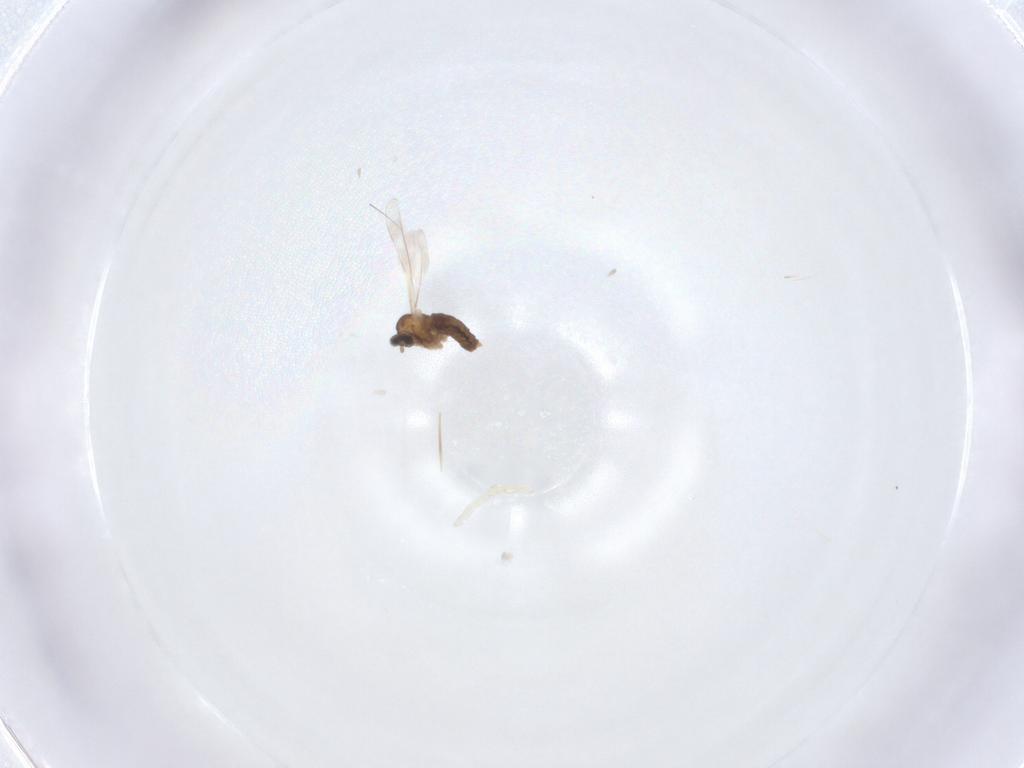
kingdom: Animalia
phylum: Arthropoda
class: Insecta
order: Diptera
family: Cecidomyiidae
